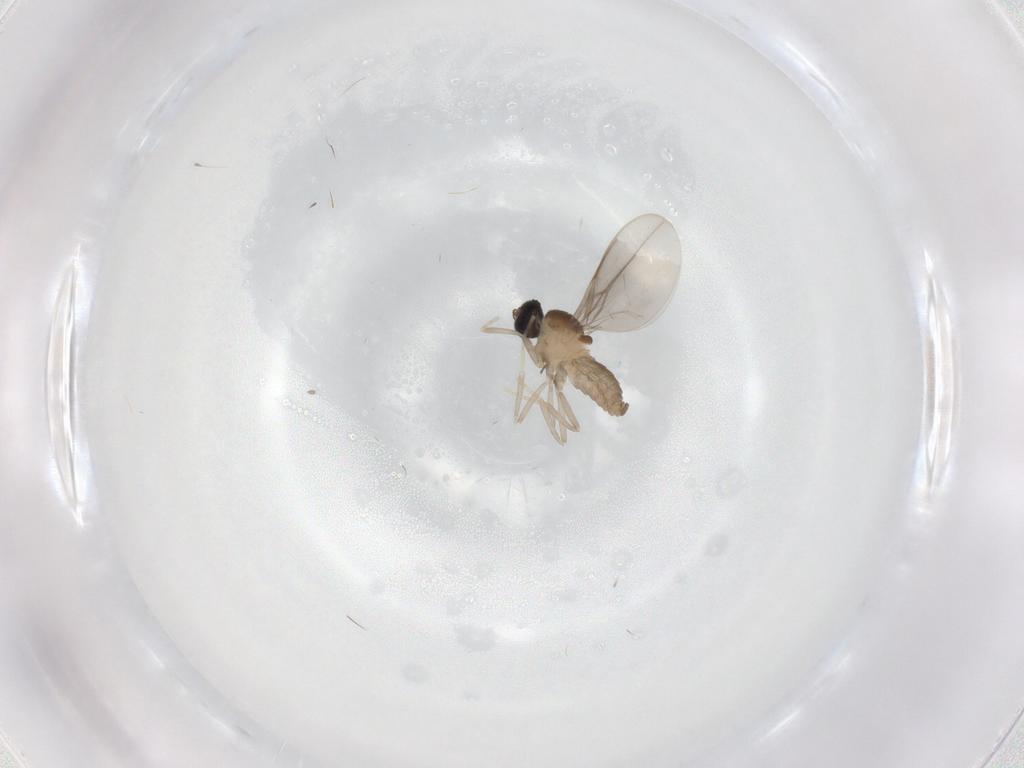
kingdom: Animalia
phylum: Arthropoda
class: Insecta
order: Diptera
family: Cecidomyiidae
